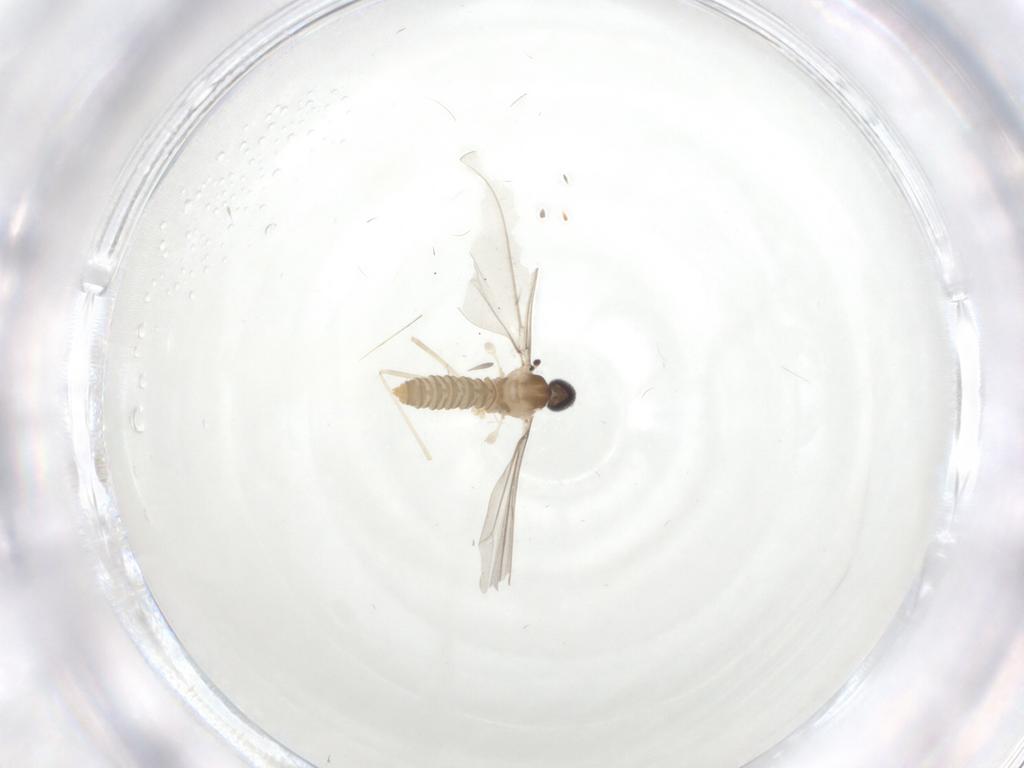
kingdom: Animalia
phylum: Arthropoda
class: Insecta
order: Diptera
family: Cecidomyiidae
